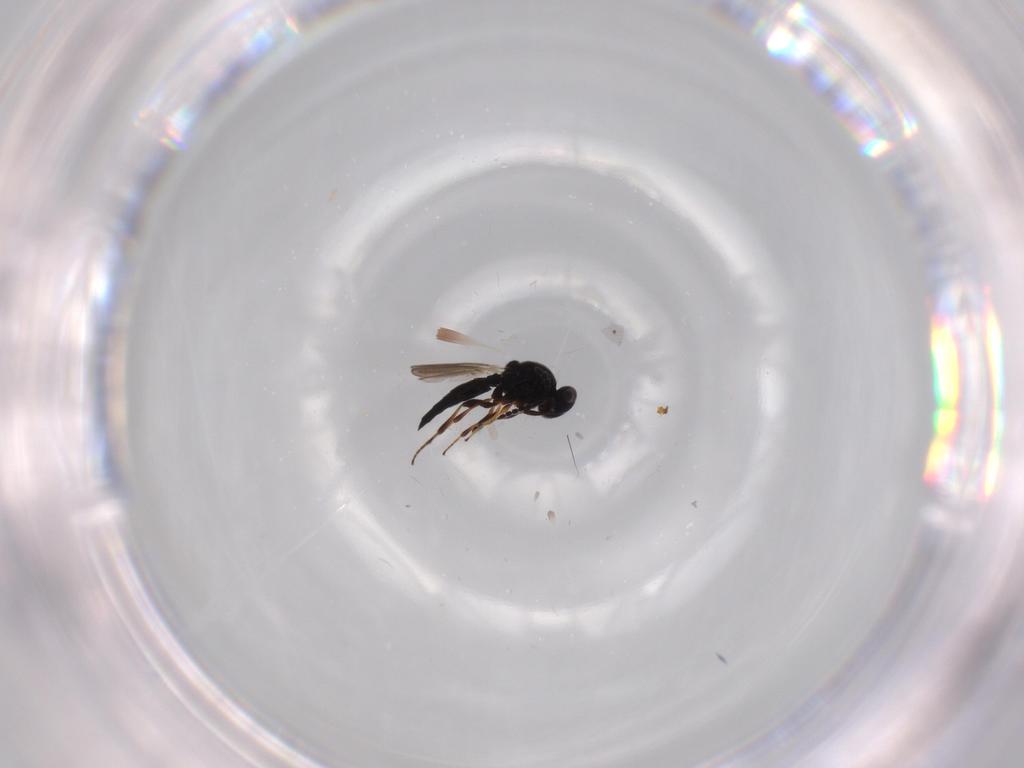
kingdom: Animalia
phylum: Arthropoda
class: Insecta
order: Hymenoptera
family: Platygastridae
